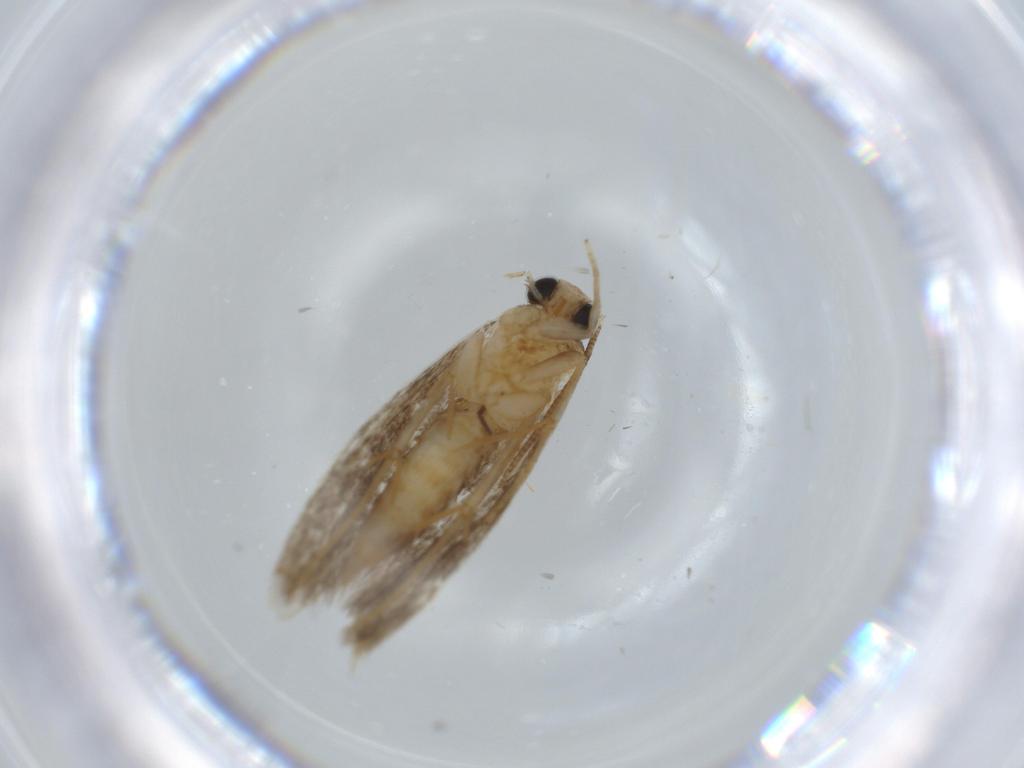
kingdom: Animalia
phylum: Arthropoda
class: Insecta
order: Lepidoptera
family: Tineidae
